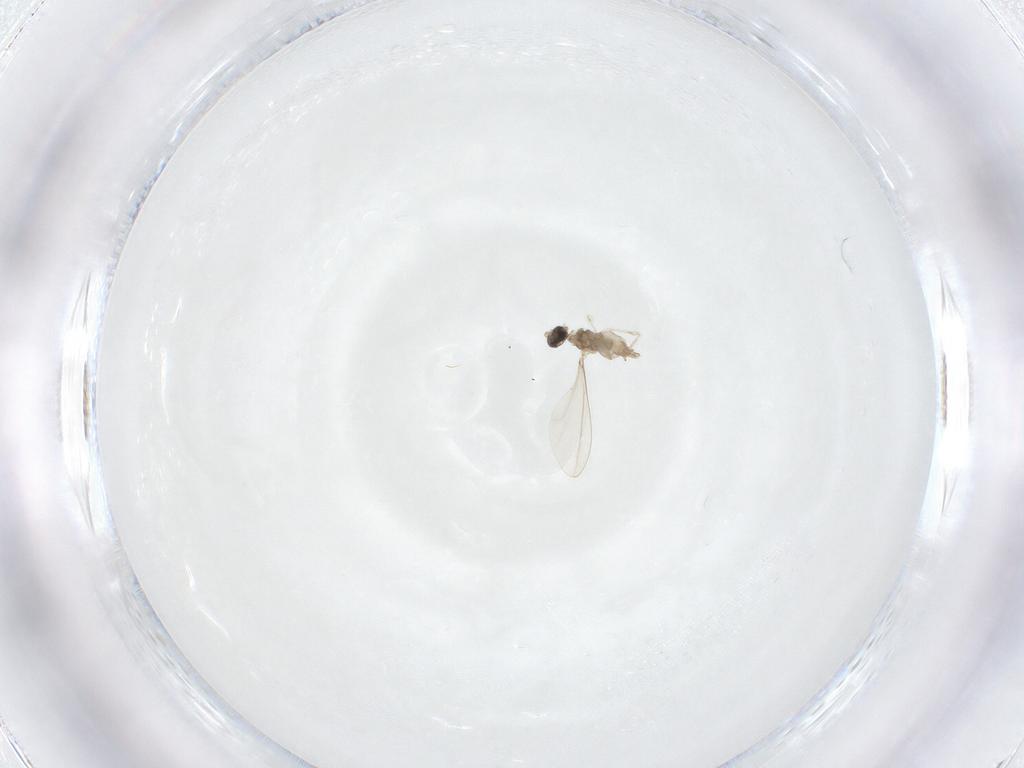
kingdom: Animalia
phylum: Arthropoda
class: Insecta
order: Diptera
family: Cecidomyiidae
